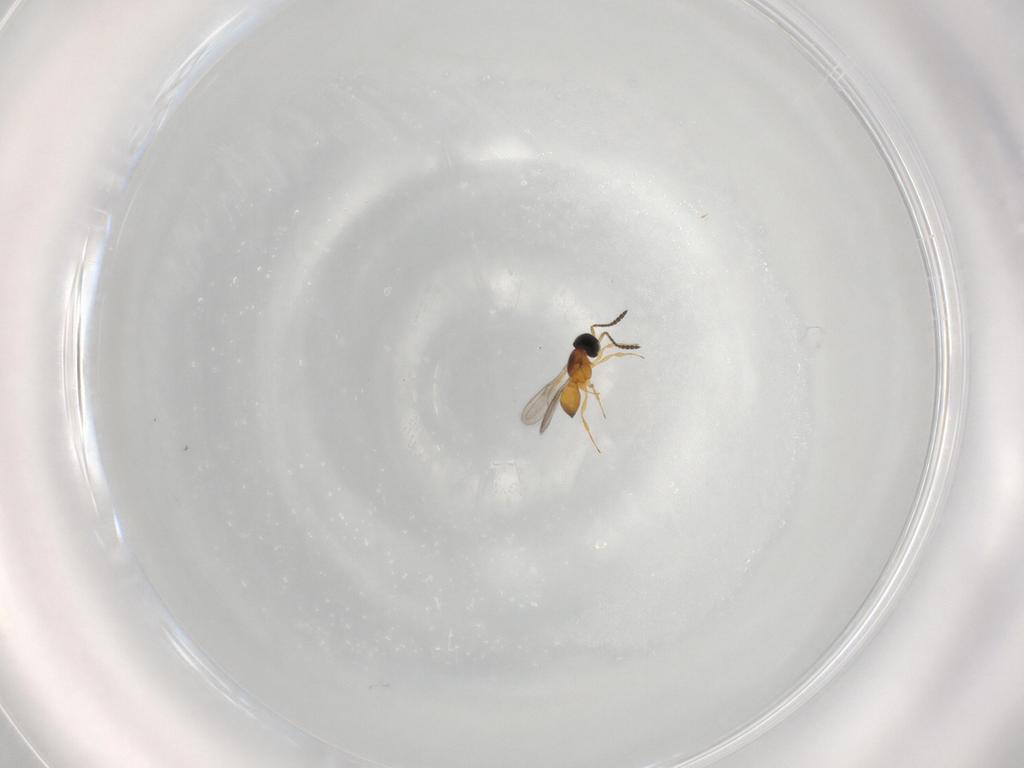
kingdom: Animalia
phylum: Arthropoda
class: Insecta
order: Hymenoptera
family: Scelionidae
